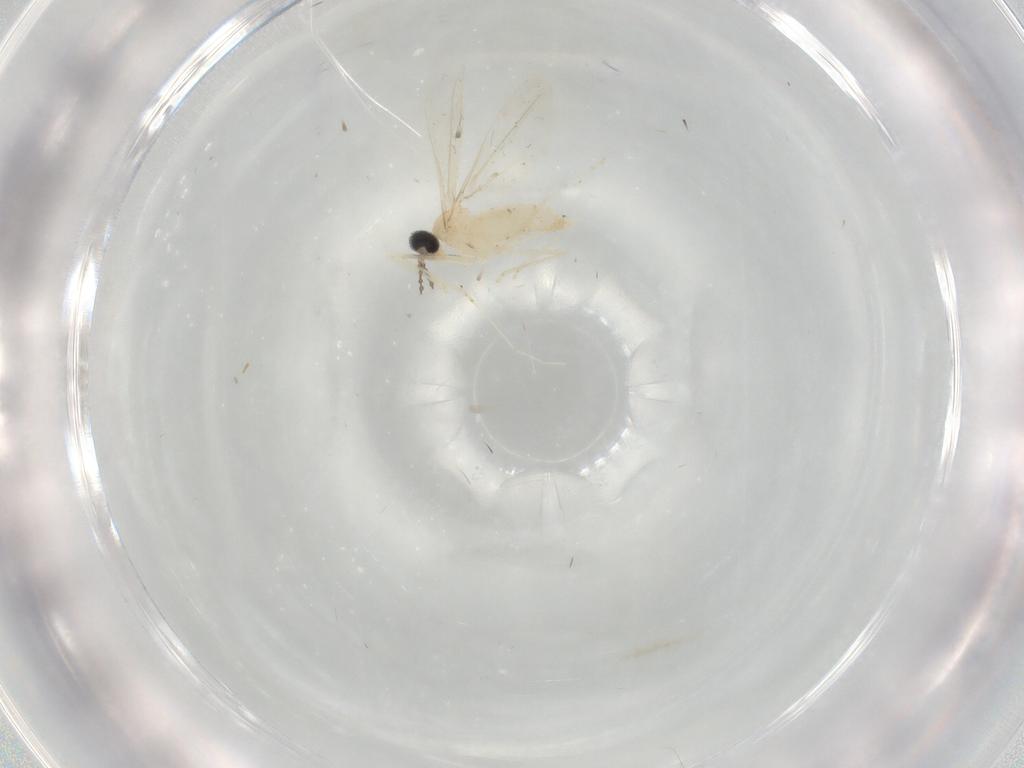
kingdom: Animalia
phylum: Arthropoda
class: Insecta
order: Diptera
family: Cecidomyiidae
